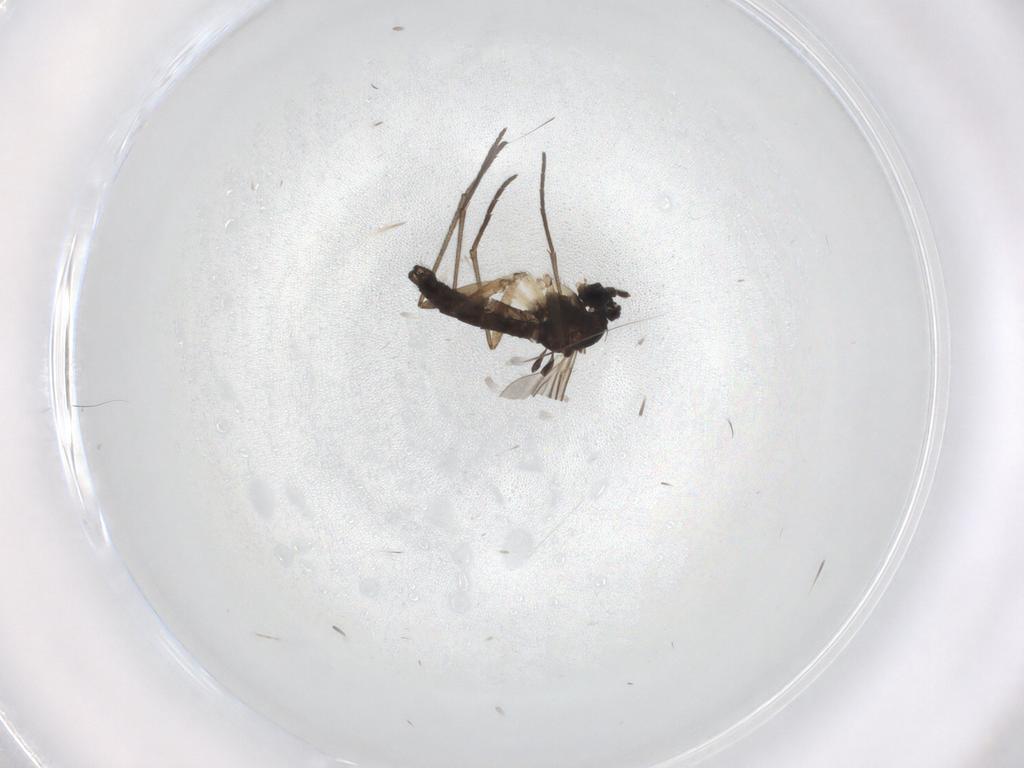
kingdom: Animalia
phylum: Arthropoda
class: Insecta
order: Diptera
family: Sciaridae
